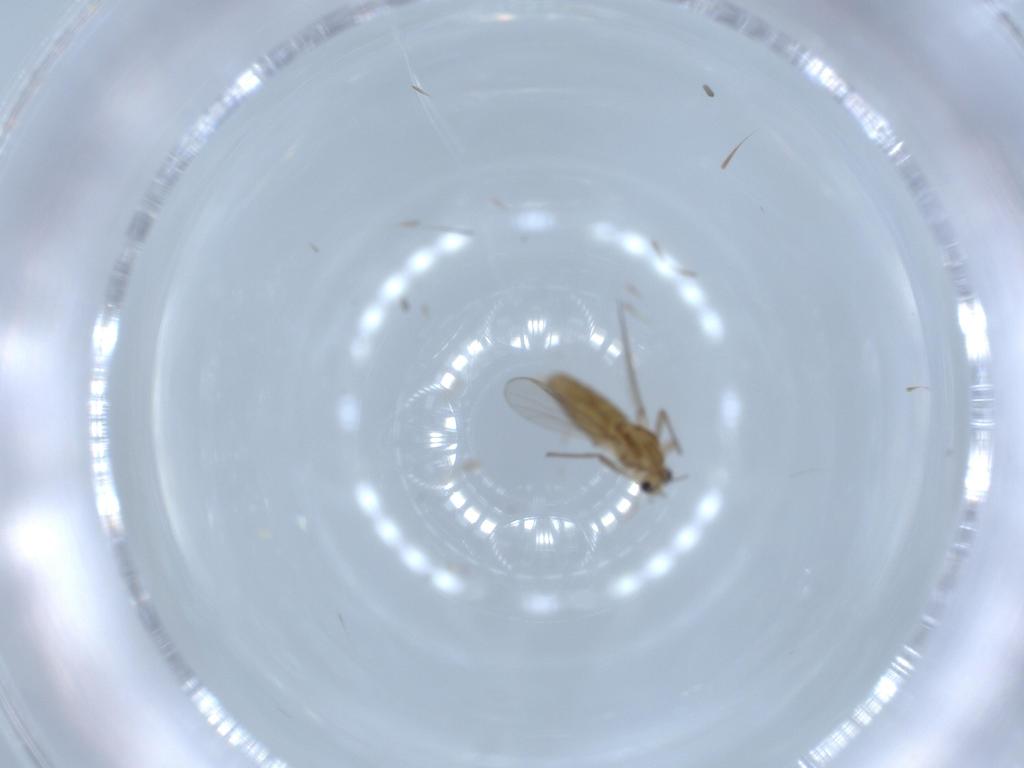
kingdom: Animalia
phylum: Arthropoda
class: Insecta
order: Diptera
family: Chironomidae
